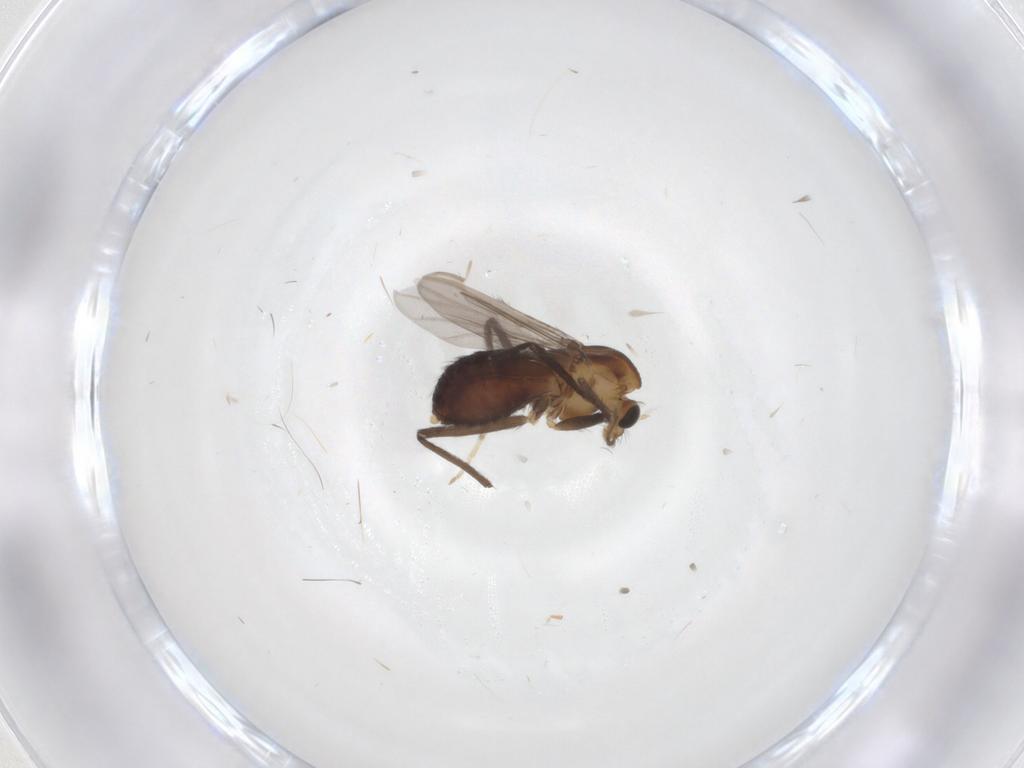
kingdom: Animalia
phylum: Arthropoda
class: Insecta
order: Diptera
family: Chironomidae
